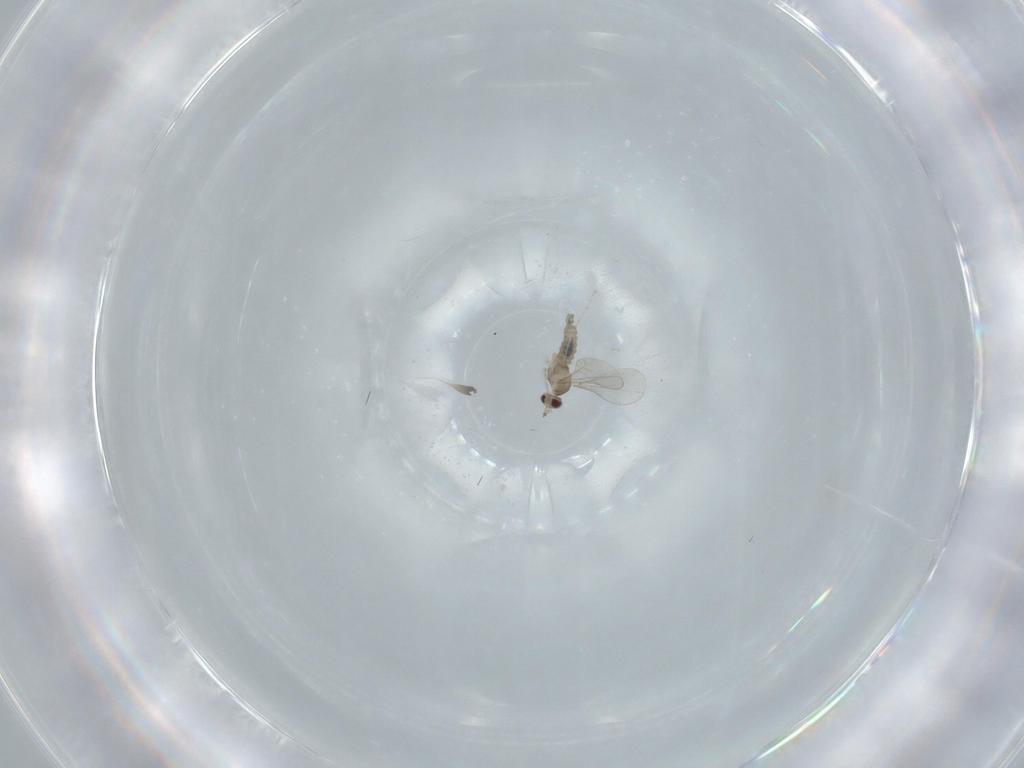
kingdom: Animalia
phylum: Arthropoda
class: Insecta
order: Diptera
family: Cecidomyiidae
